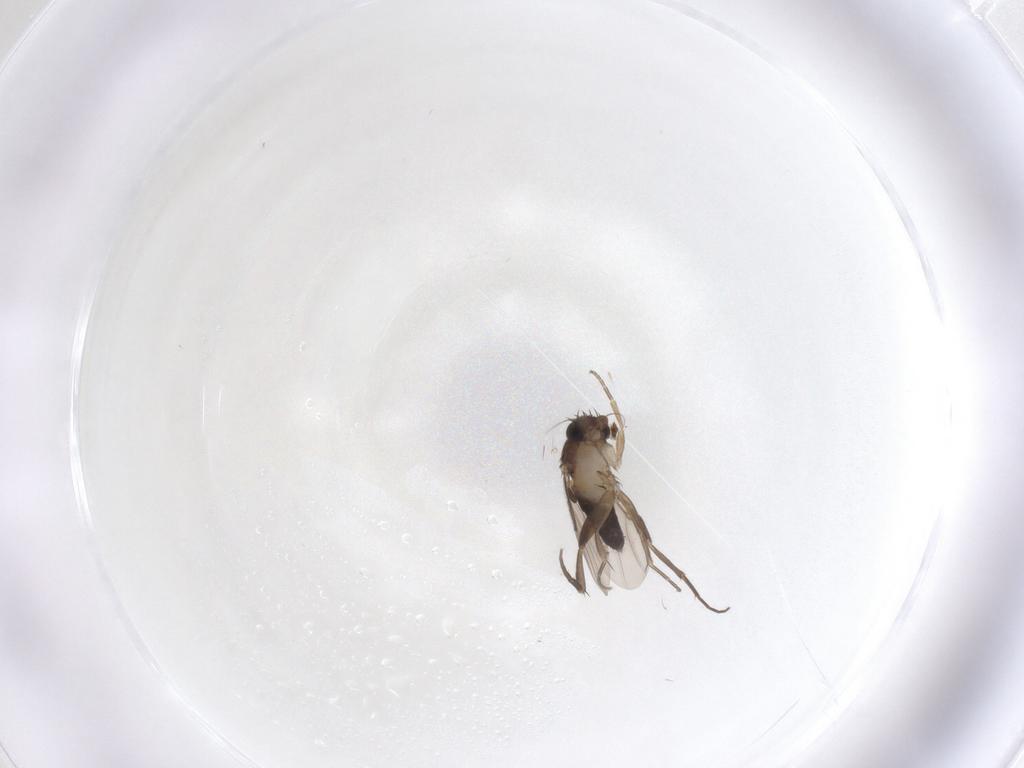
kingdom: Animalia
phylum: Arthropoda
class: Insecta
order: Diptera
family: Phoridae
